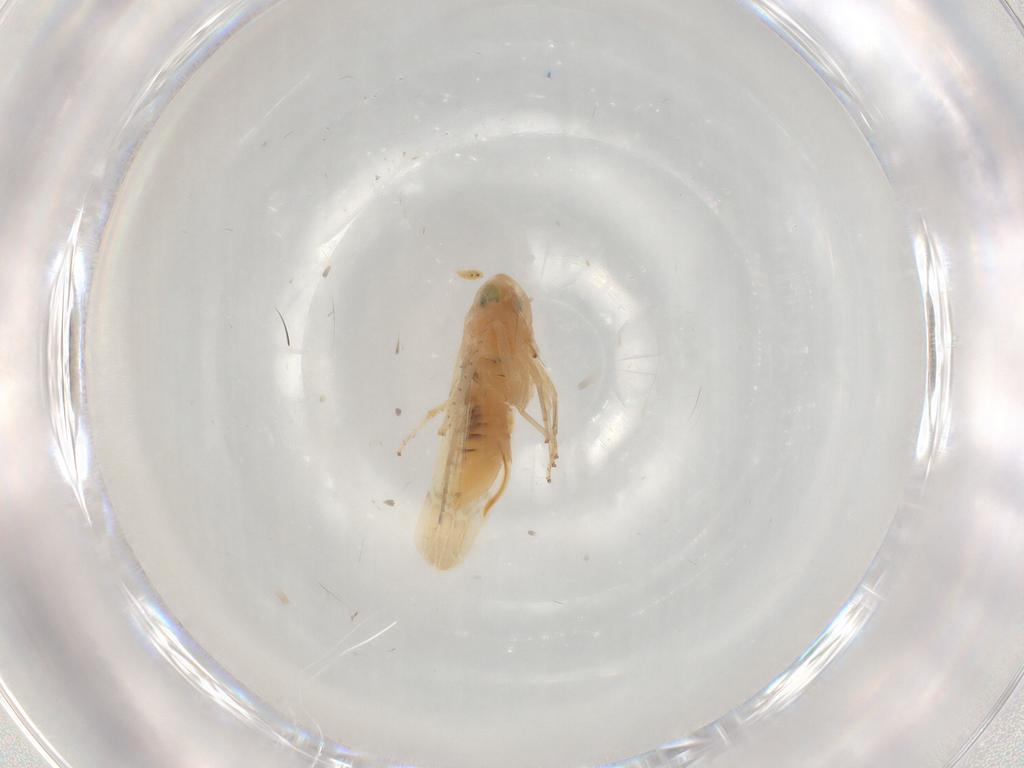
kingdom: Animalia
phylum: Arthropoda
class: Insecta
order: Hemiptera
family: Cicadellidae
